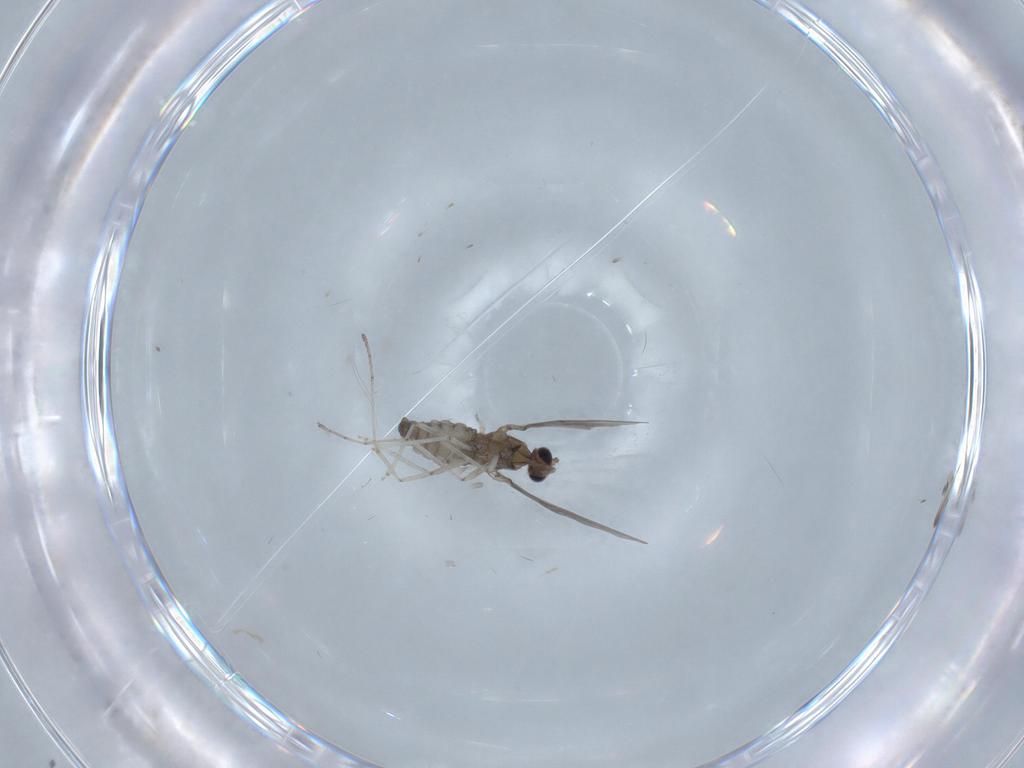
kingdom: Animalia
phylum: Arthropoda
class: Insecta
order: Diptera
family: Cecidomyiidae
